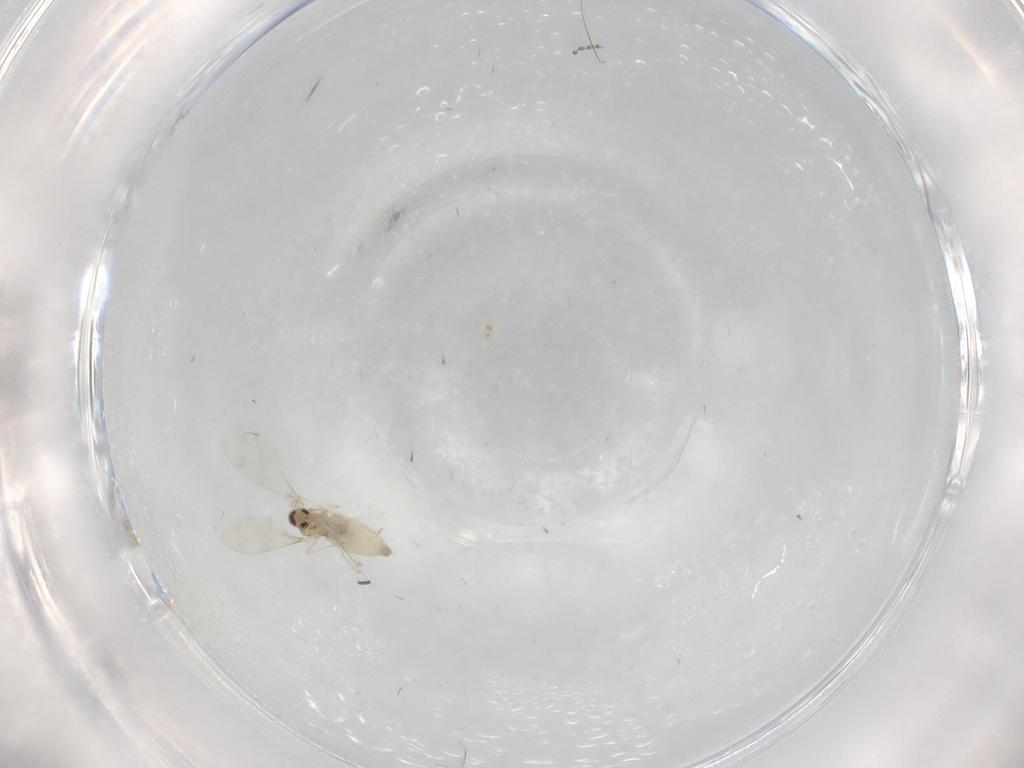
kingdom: Animalia
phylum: Arthropoda
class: Insecta
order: Diptera
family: Cecidomyiidae
